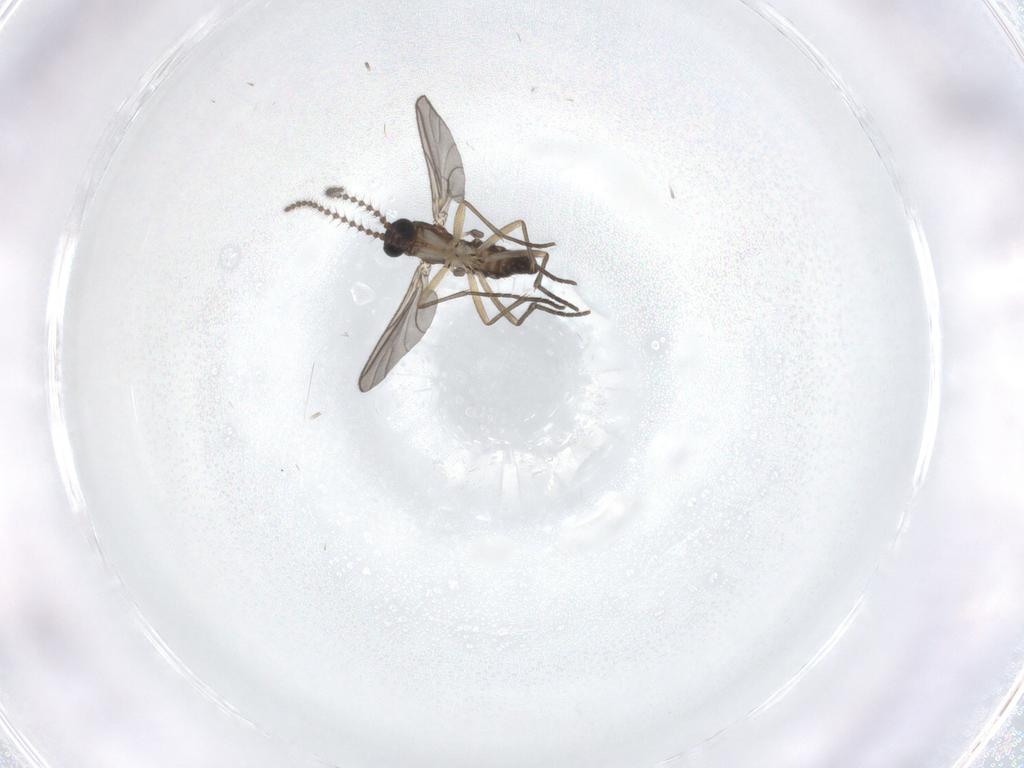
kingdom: Animalia
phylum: Arthropoda
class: Insecta
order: Diptera
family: Sciaridae
